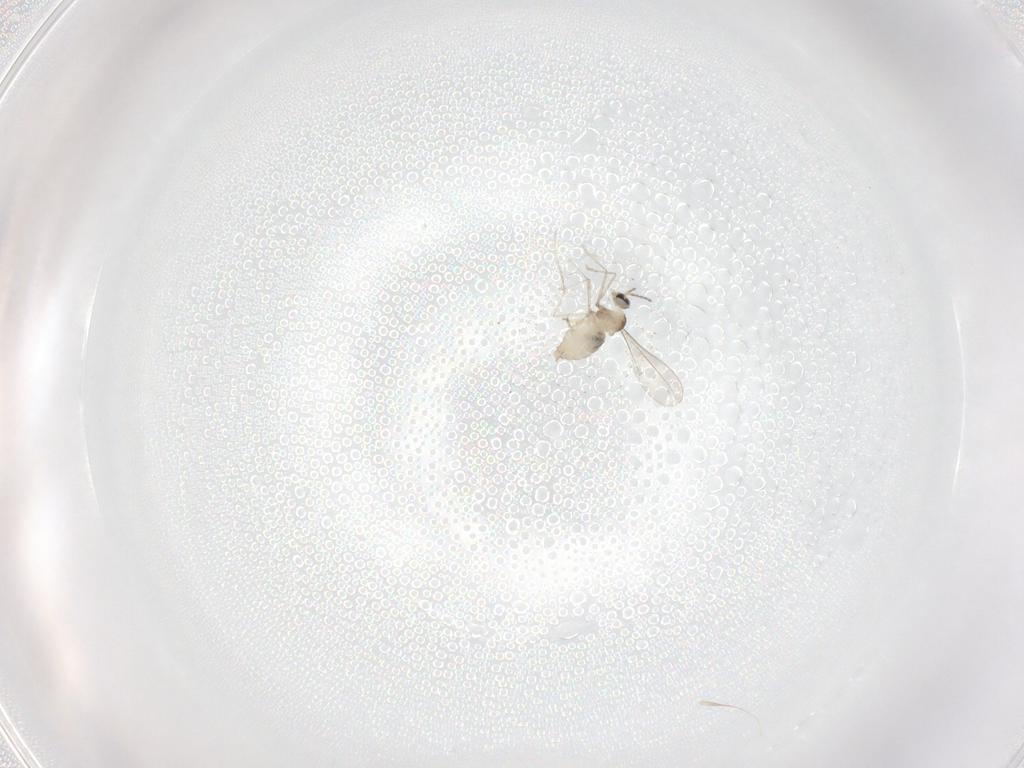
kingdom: Animalia
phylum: Arthropoda
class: Insecta
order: Diptera
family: Cecidomyiidae
